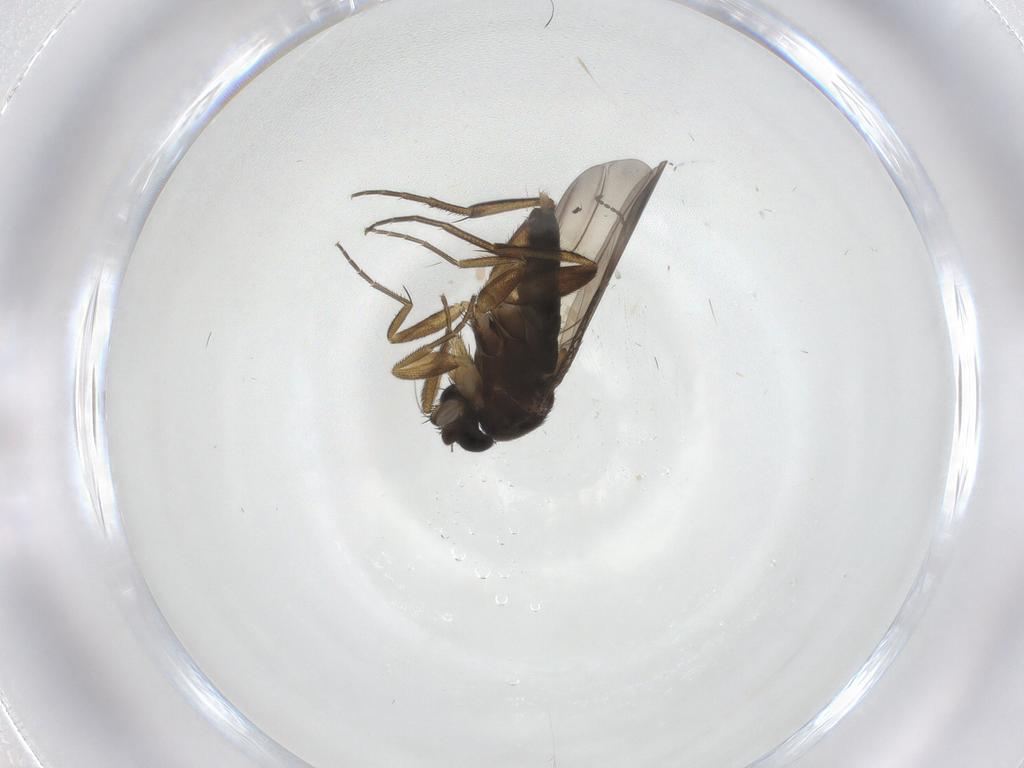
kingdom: Animalia
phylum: Arthropoda
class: Insecta
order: Diptera
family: Phoridae
